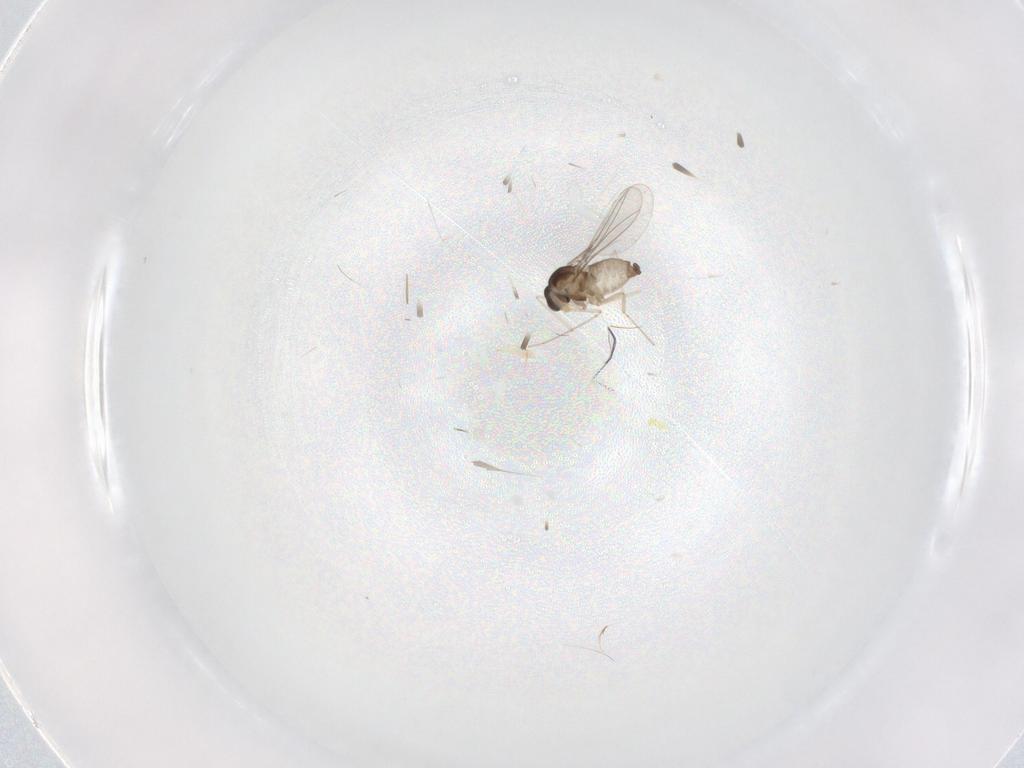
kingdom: Animalia
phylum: Arthropoda
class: Insecta
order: Diptera
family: Cecidomyiidae
